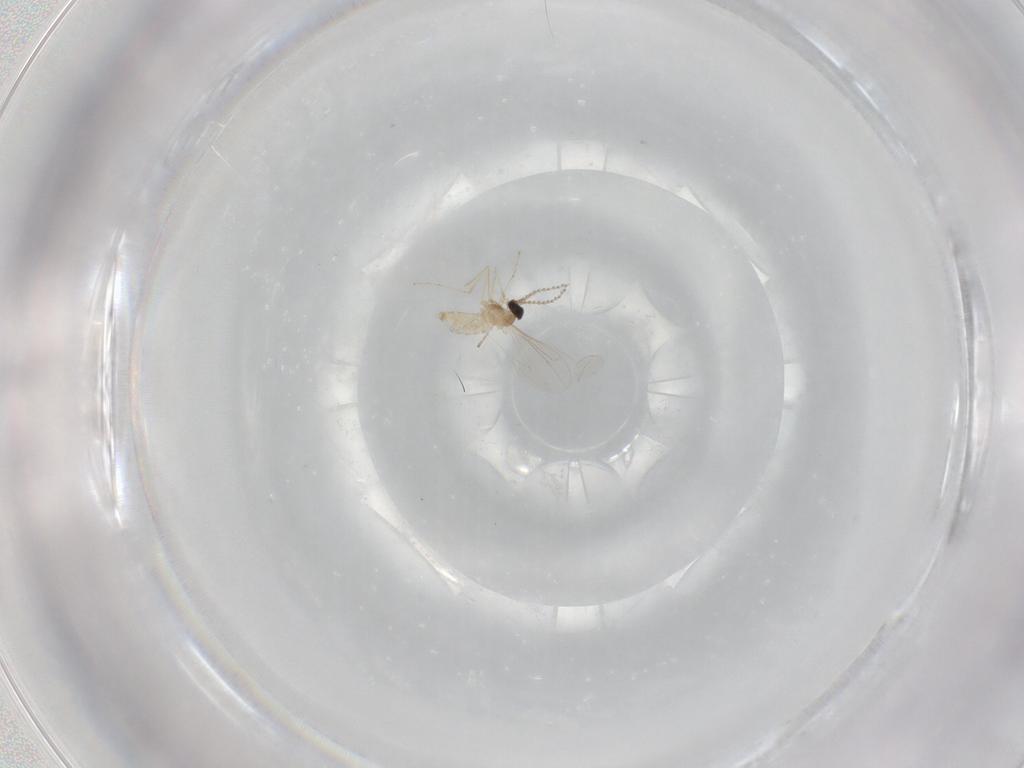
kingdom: Animalia
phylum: Arthropoda
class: Insecta
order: Diptera
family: Cecidomyiidae
